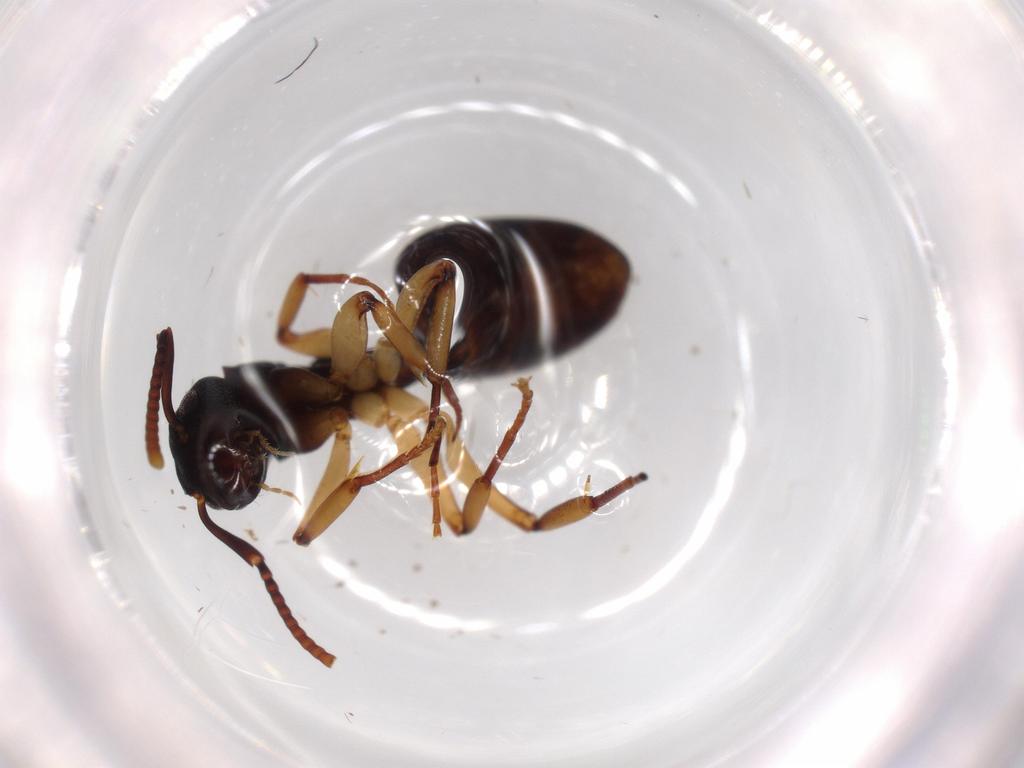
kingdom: Animalia
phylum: Arthropoda
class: Insecta
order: Hymenoptera
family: Formicidae
